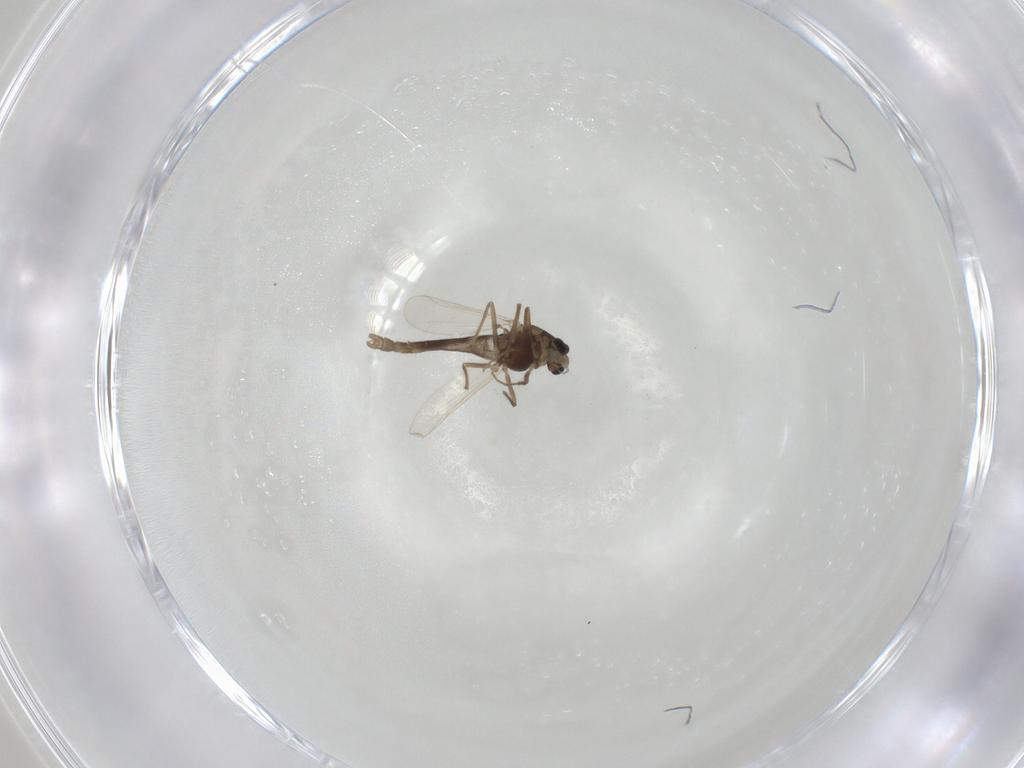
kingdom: Animalia
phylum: Arthropoda
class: Insecta
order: Diptera
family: Chironomidae
